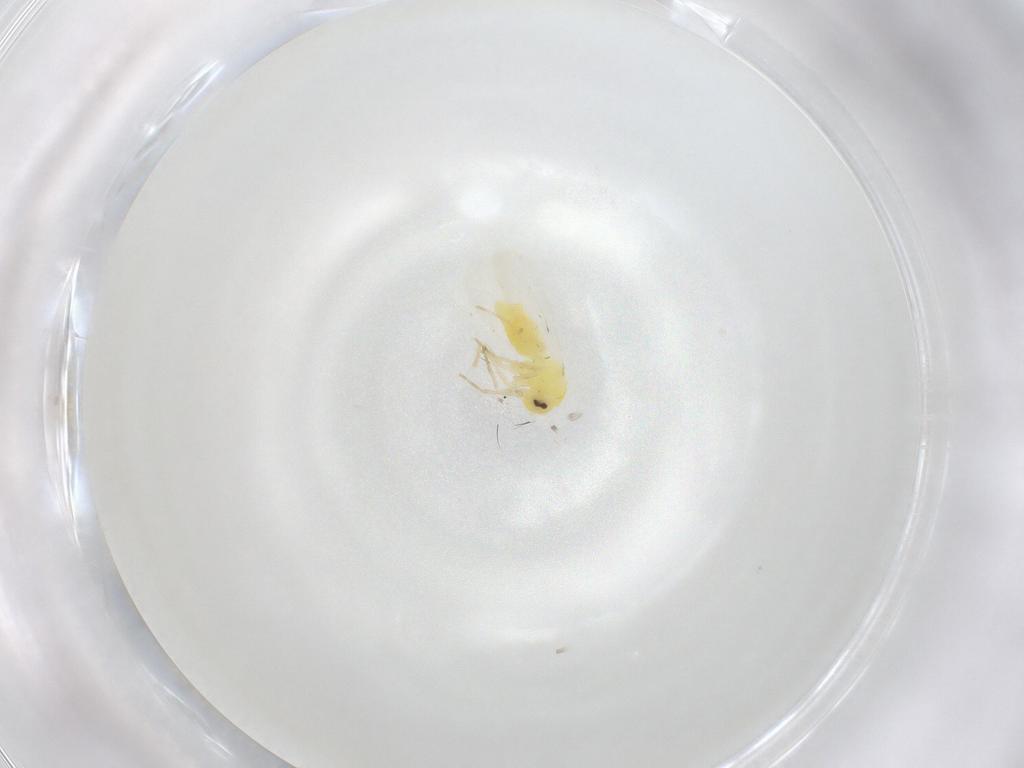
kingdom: Animalia
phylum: Arthropoda
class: Insecta
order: Hemiptera
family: Aleyrodidae
